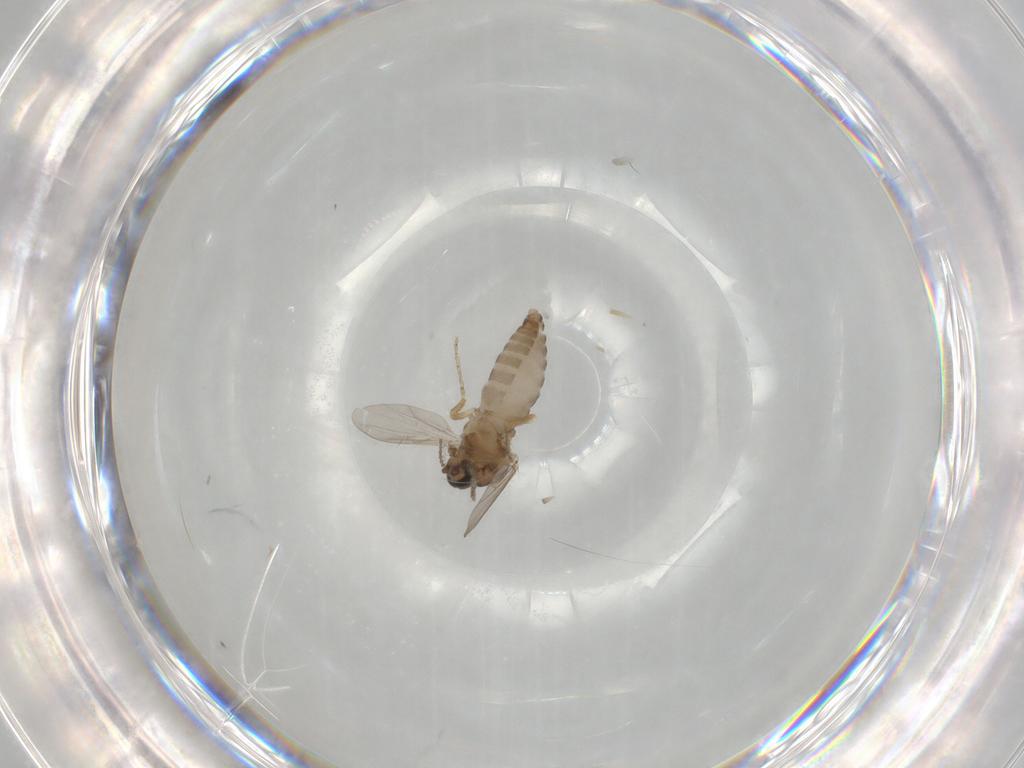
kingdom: Animalia
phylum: Arthropoda
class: Insecta
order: Diptera
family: Ceratopogonidae
